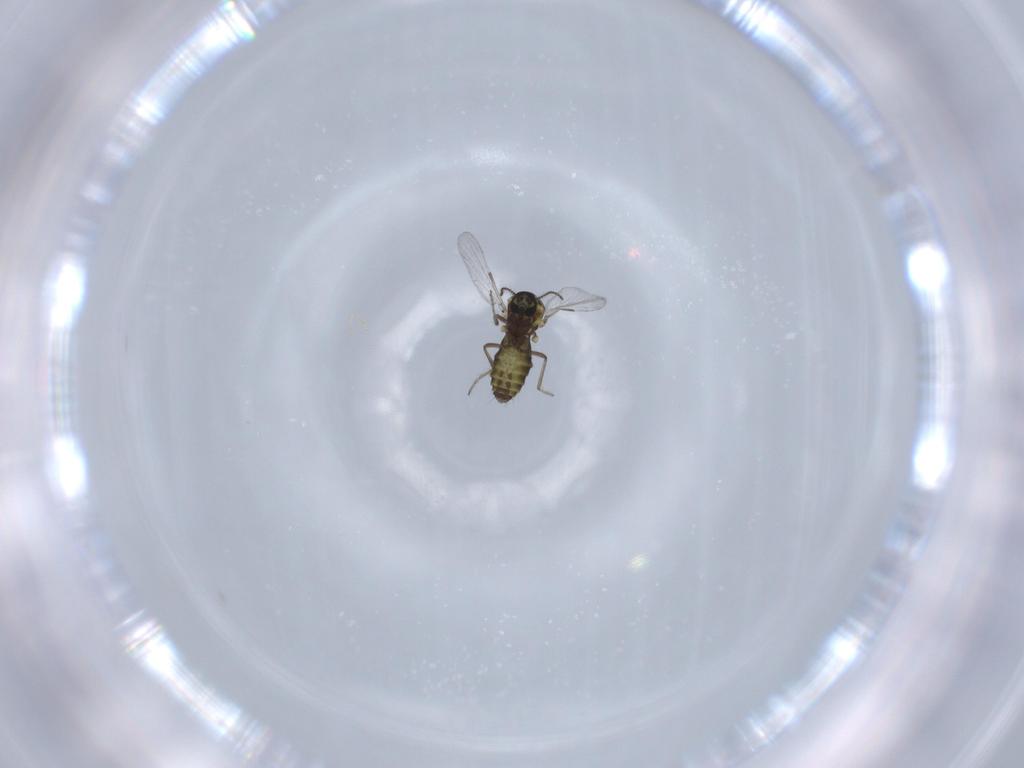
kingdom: Animalia
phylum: Arthropoda
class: Insecta
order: Diptera
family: Ceratopogonidae
